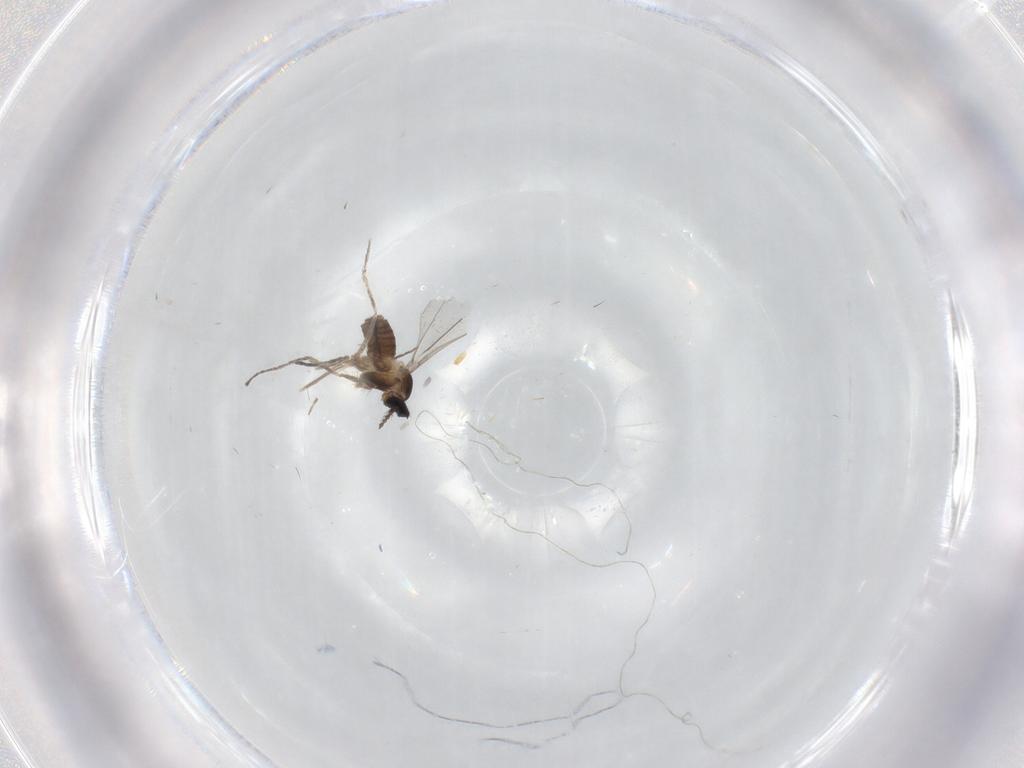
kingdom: Animalia
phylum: Arthropoda
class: Insecta
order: Diptera
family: Cecidomyiidae
